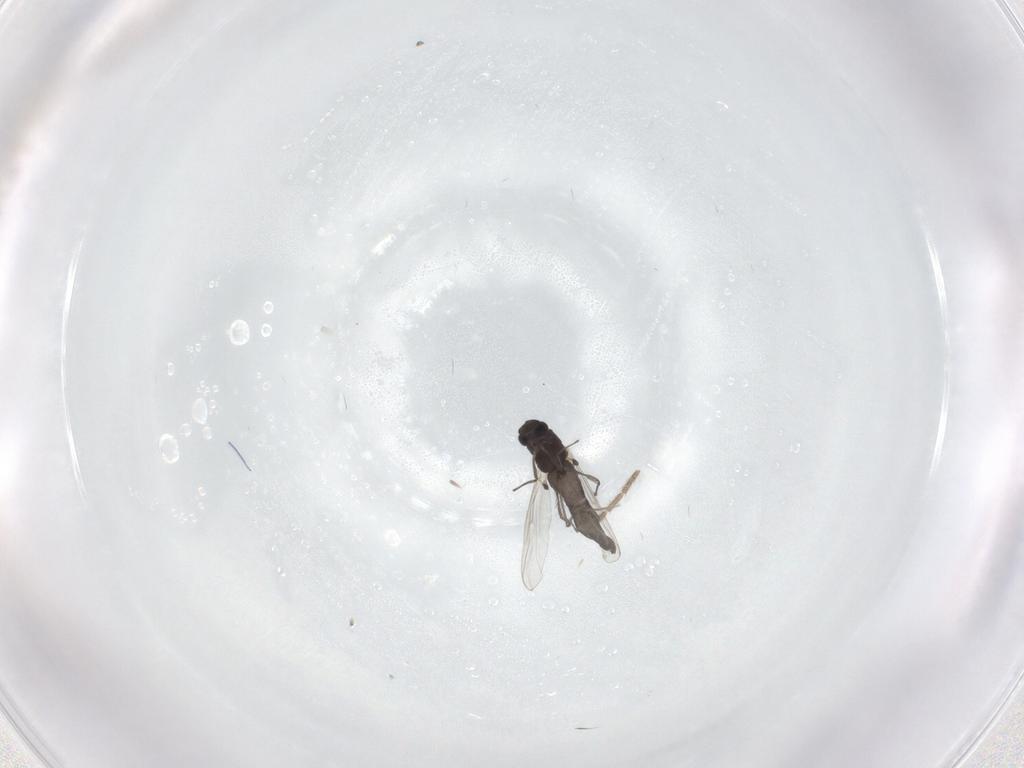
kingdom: Animalia
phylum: Arthropoda
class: Insecta
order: Diptera
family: Chironomidae
